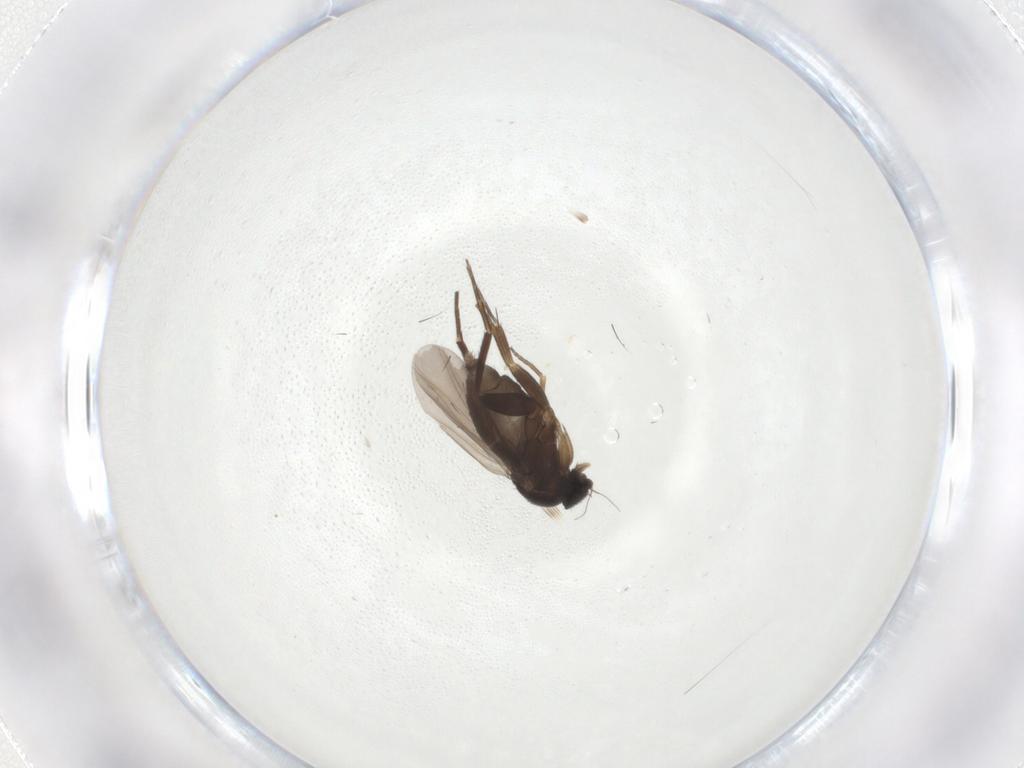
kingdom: Animalia
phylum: Arthropoda
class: Insecta
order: Diptera
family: Phoridae
